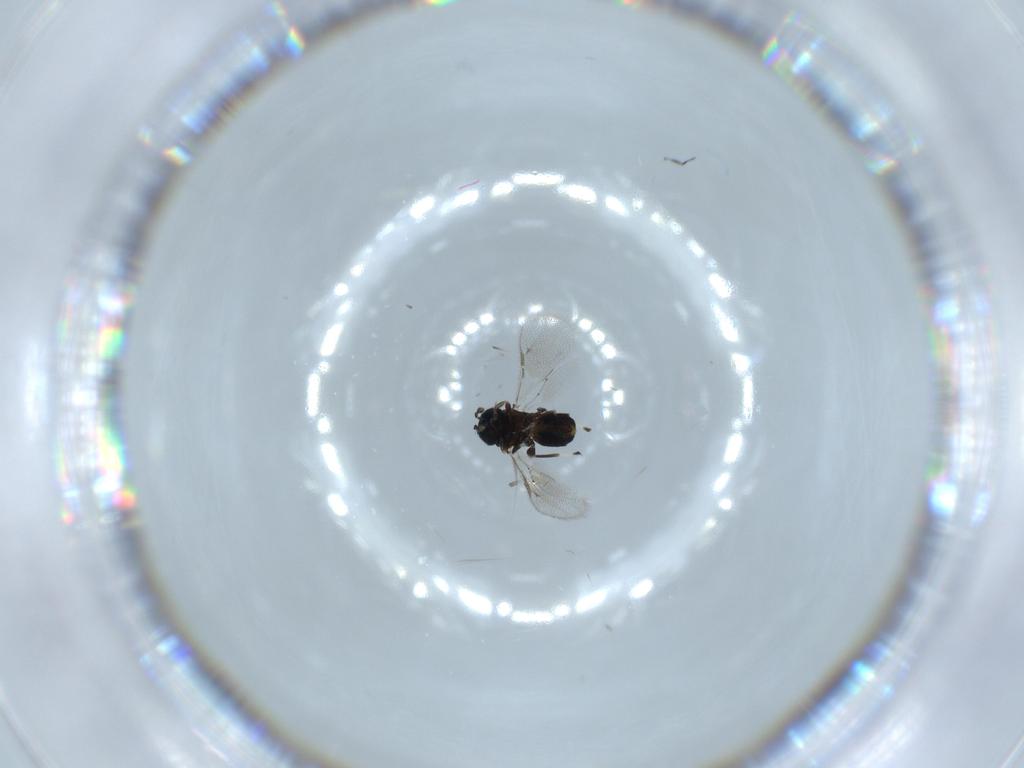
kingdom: Animalia
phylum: Arthropoda
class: Insecta
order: Hymenoptera
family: Eulophidae
